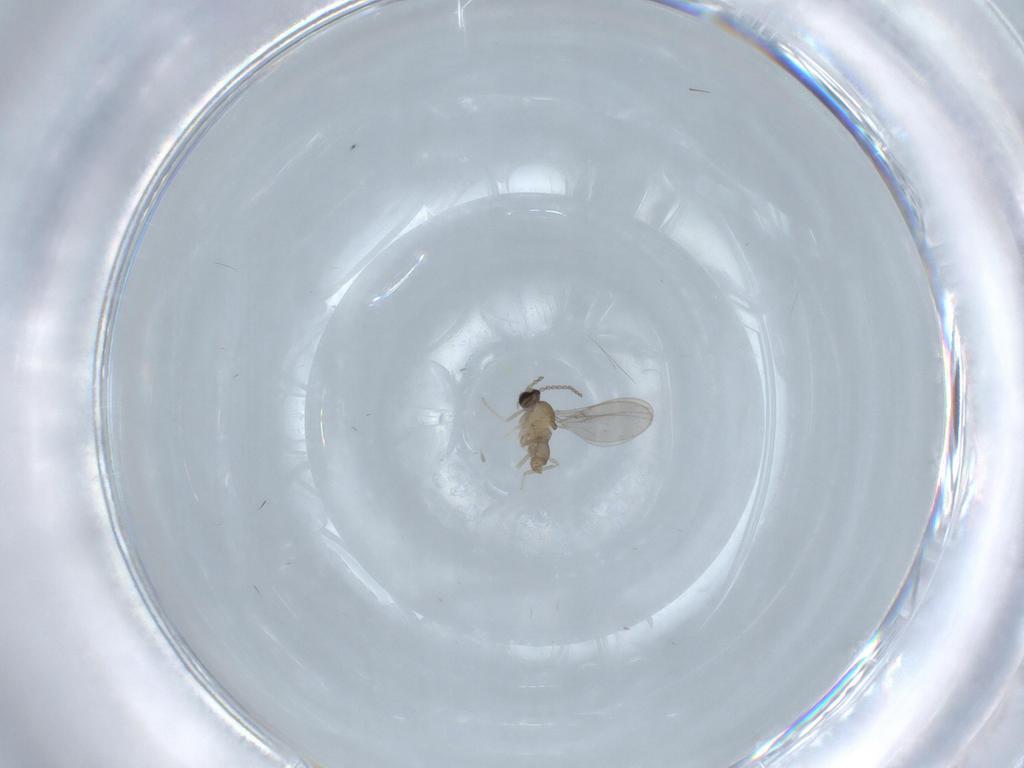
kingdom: Animalia
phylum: Arthropoda
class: Insecta
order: Diptera
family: Cecidomyiidae
